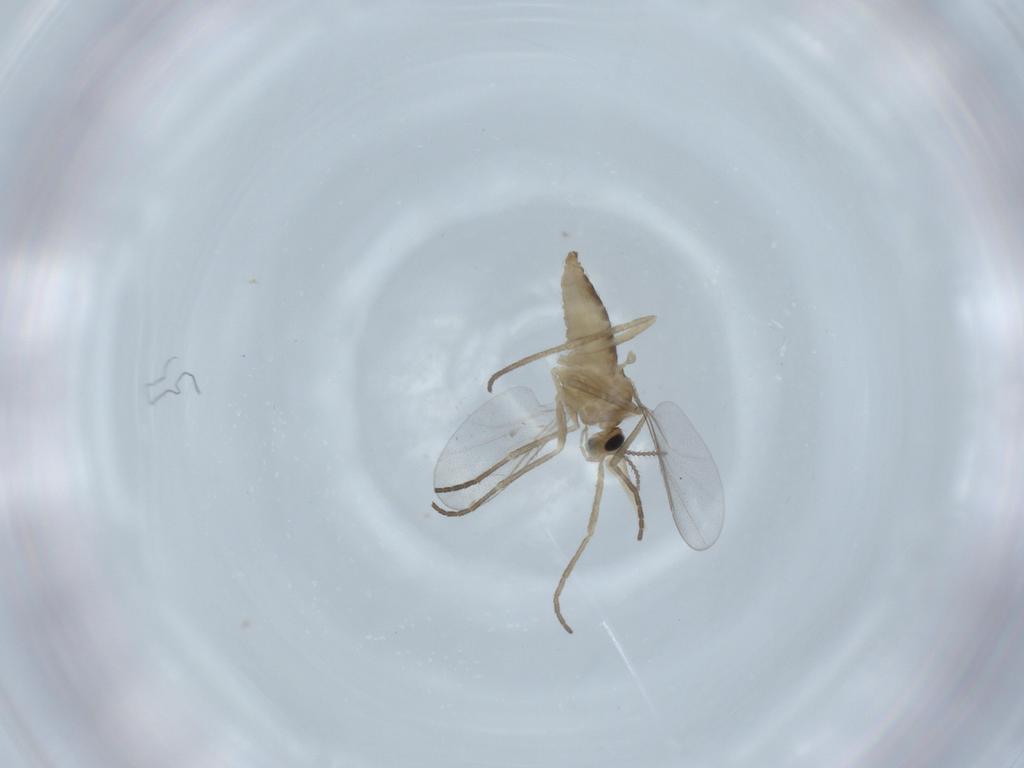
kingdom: Animalia
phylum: Arthropoda
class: Insecta
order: Diptera
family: Cecidomyiidae
